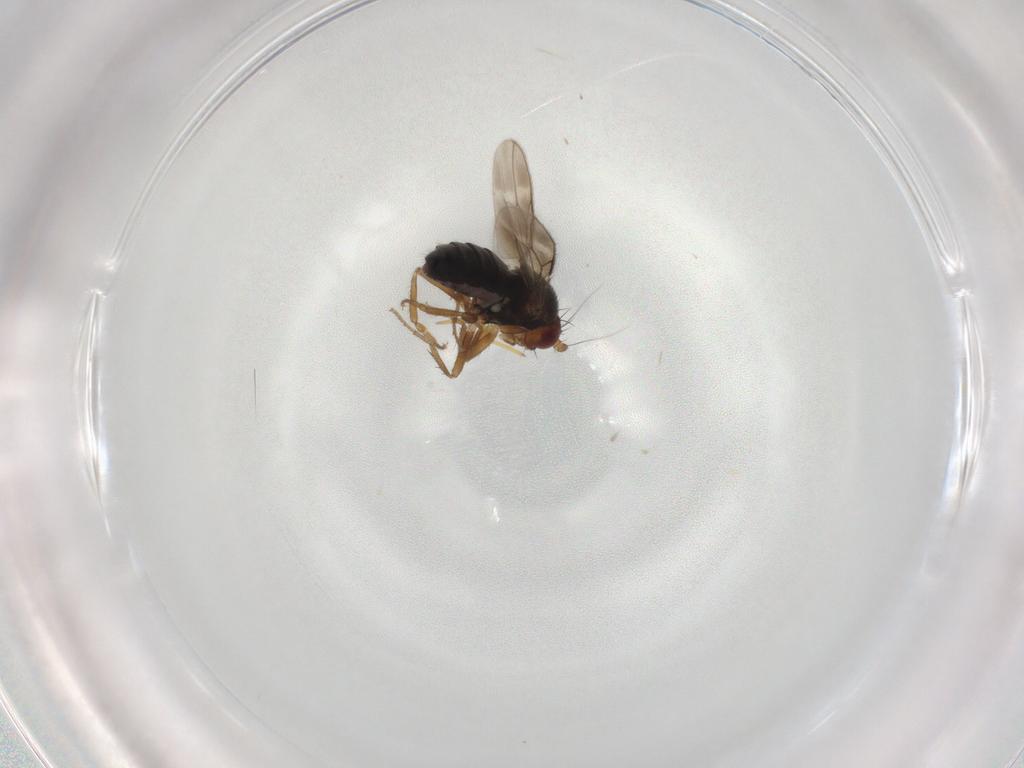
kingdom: Animalia
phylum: Arthropoda
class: Insecta
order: Diptera
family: Sphaeroceridae
